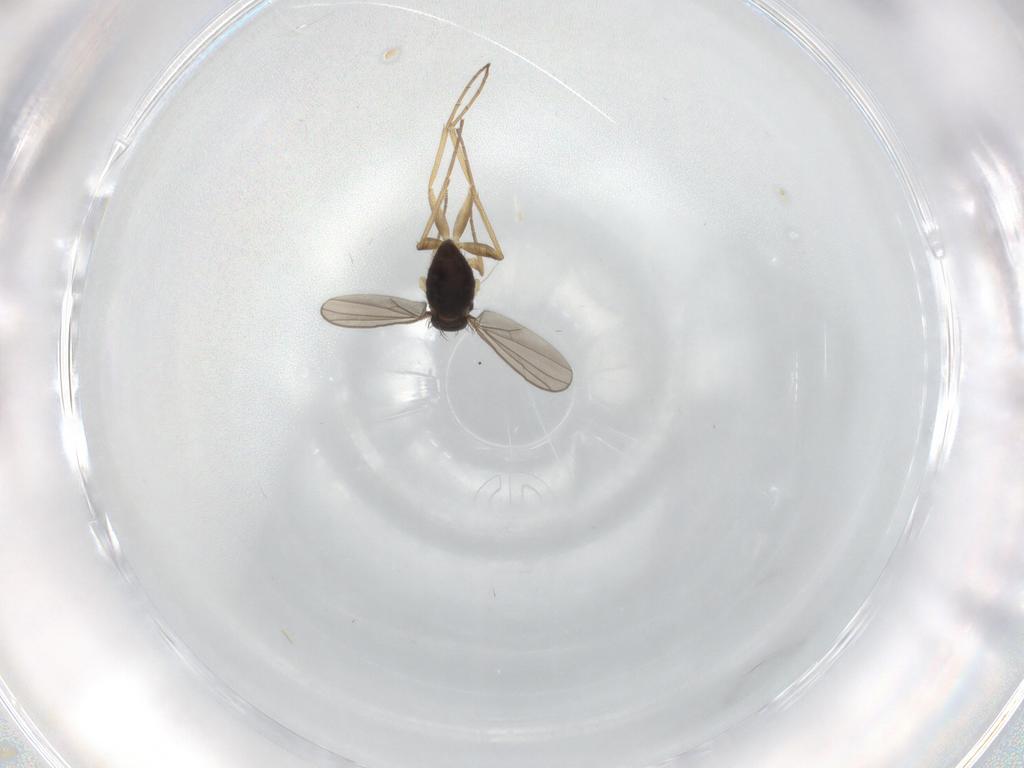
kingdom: Animalia
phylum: Arthropoda
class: Insecta
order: Diptera
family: Dolichopodidae
